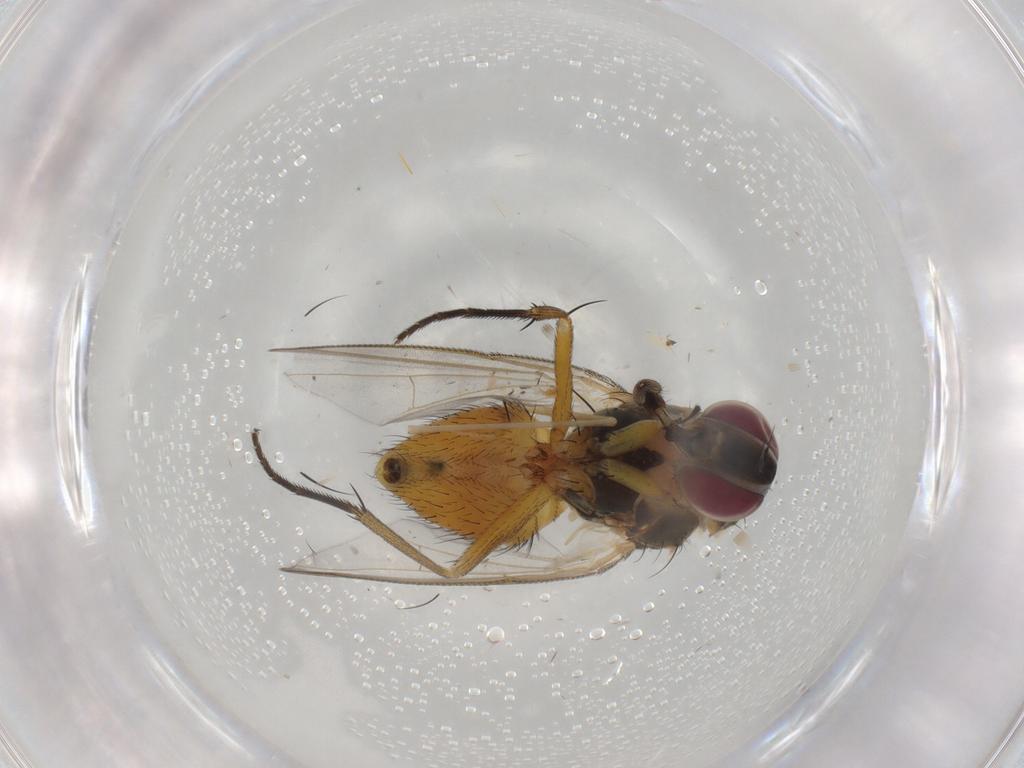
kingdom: Animalia
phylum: Arthropoda
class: Insecta
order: Diptera
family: Muscidae
